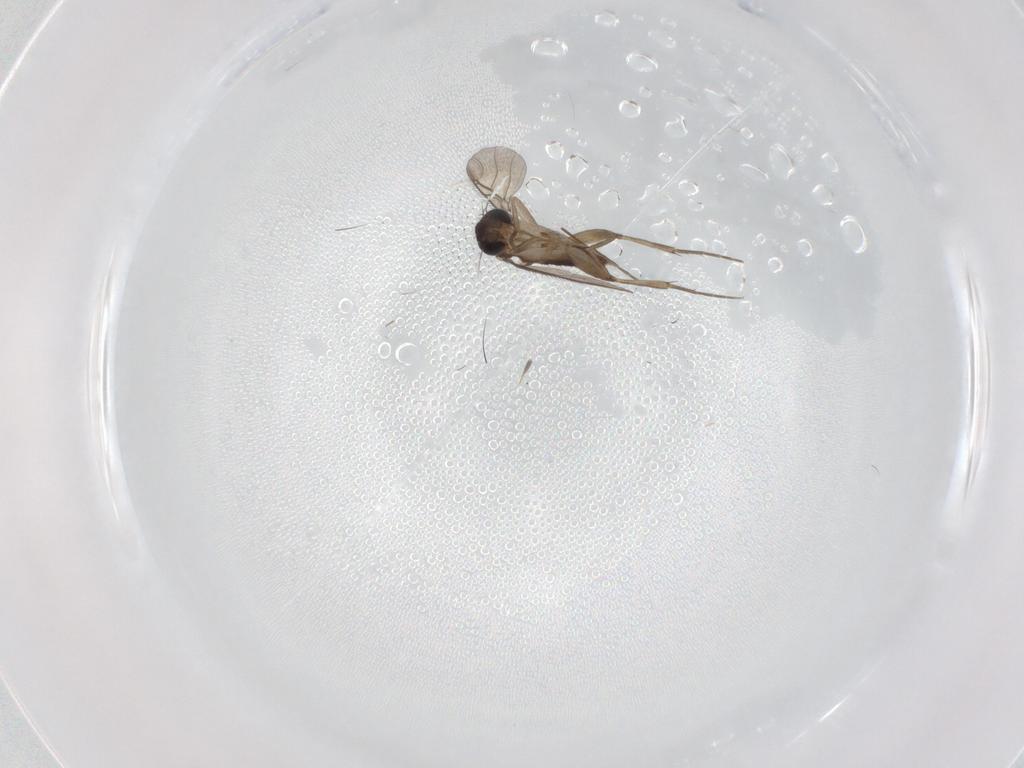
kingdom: Animalia
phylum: Arthropoda
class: Insecta
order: Diptera
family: Phoridae
